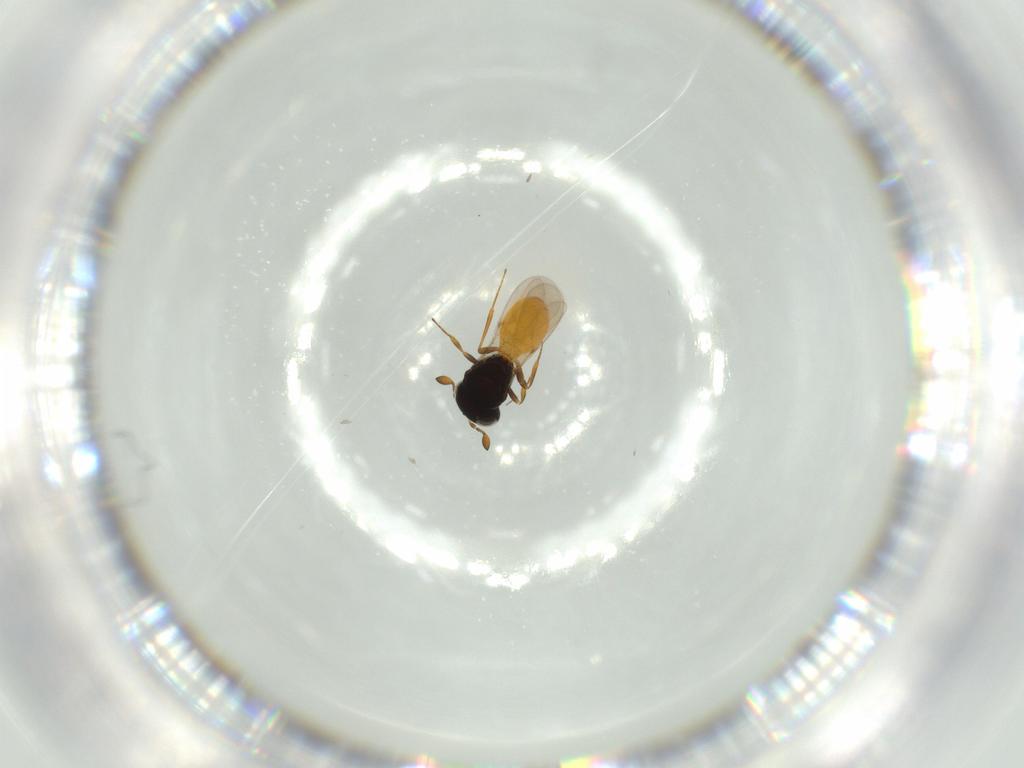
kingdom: Animalia
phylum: Arthropoda
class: Insecta
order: Hymenoptera
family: Scelionidae
